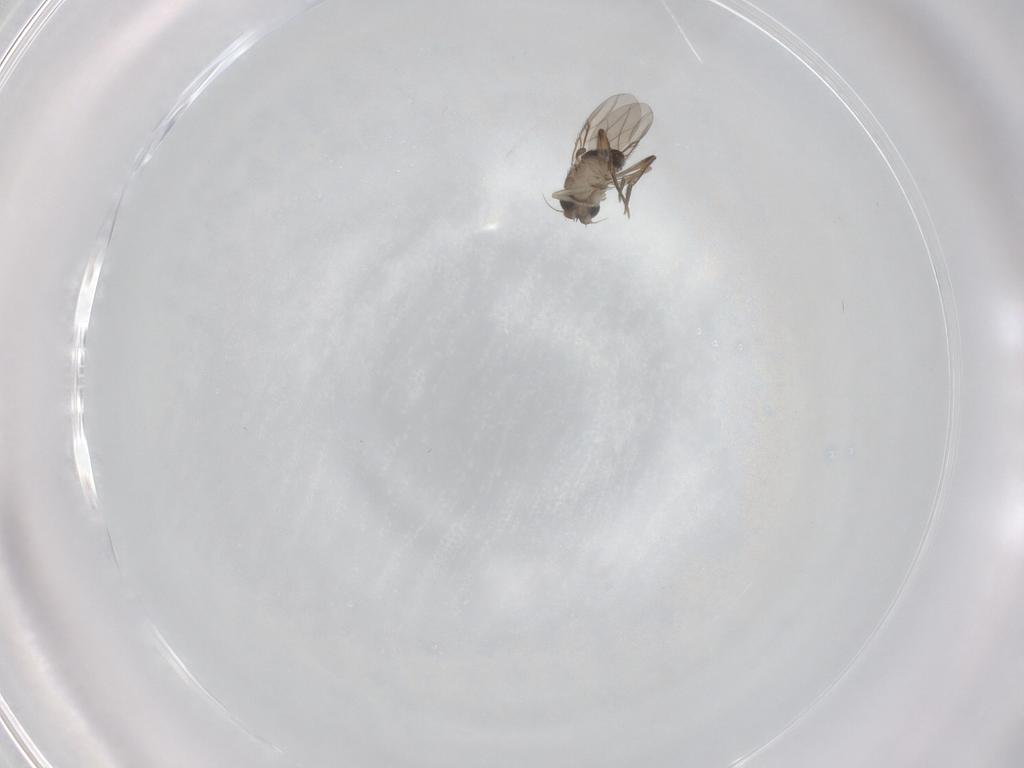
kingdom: Animalia
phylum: Arthropoda
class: Insecta
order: Diptera
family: Phoridae
